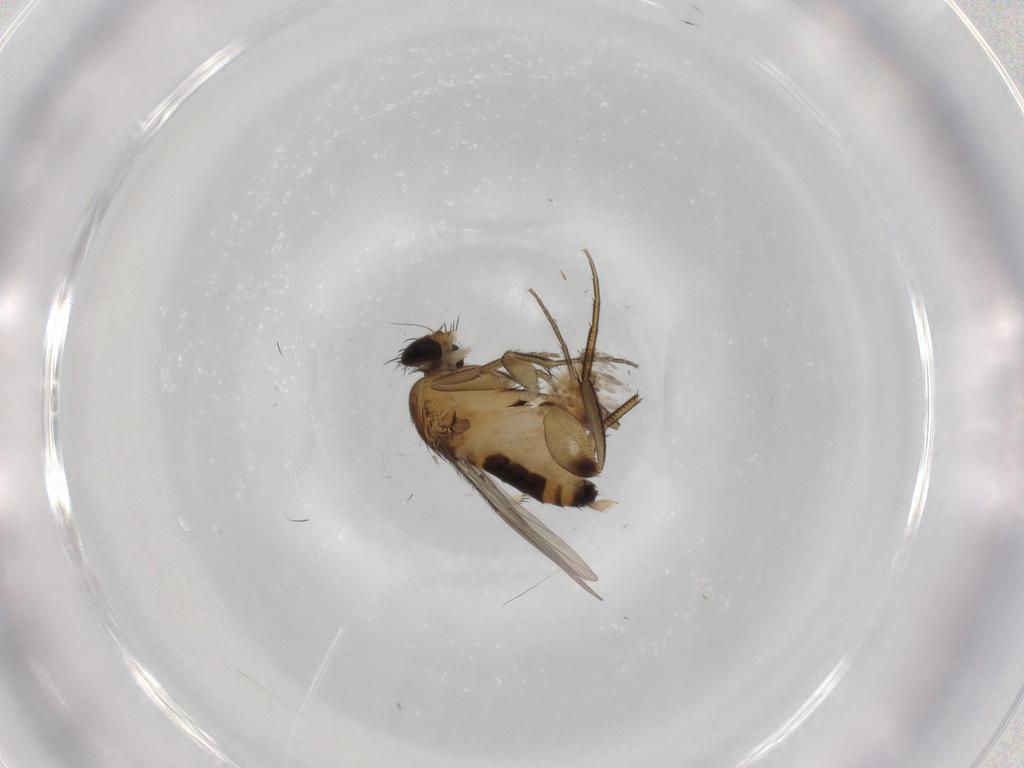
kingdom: Animalia
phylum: Arthropoda
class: Insecta
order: Diptera
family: Phoridae
